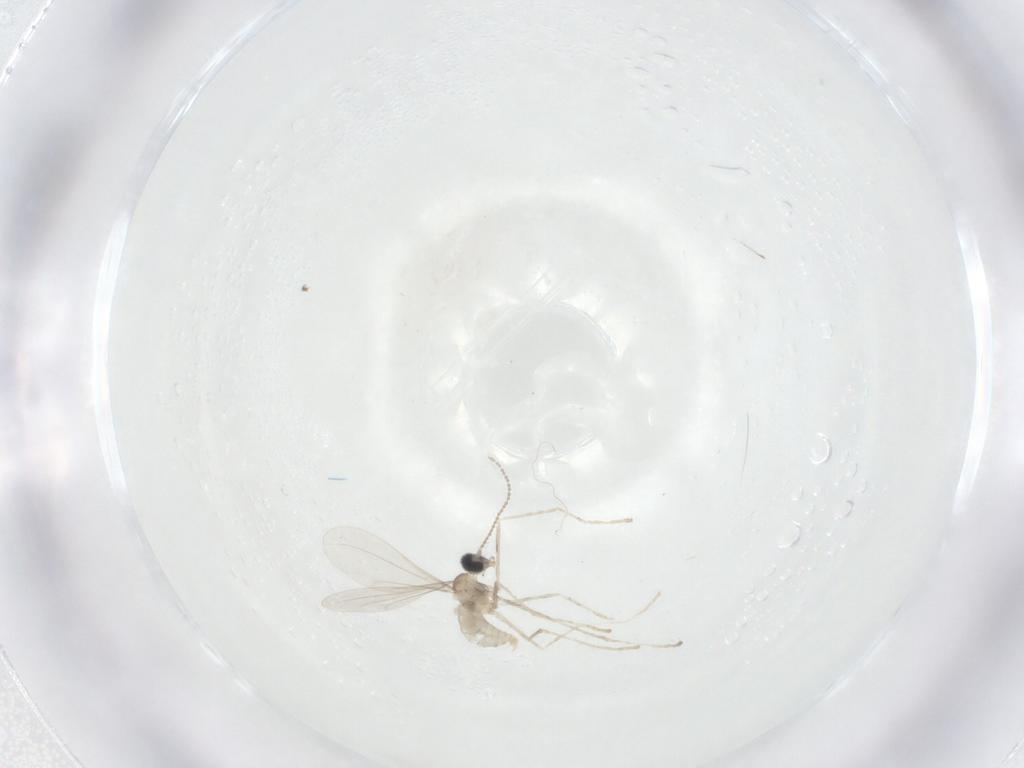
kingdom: Animalia
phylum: Arthropoda
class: Insecta
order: Diptera
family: Cecidomyiidae
